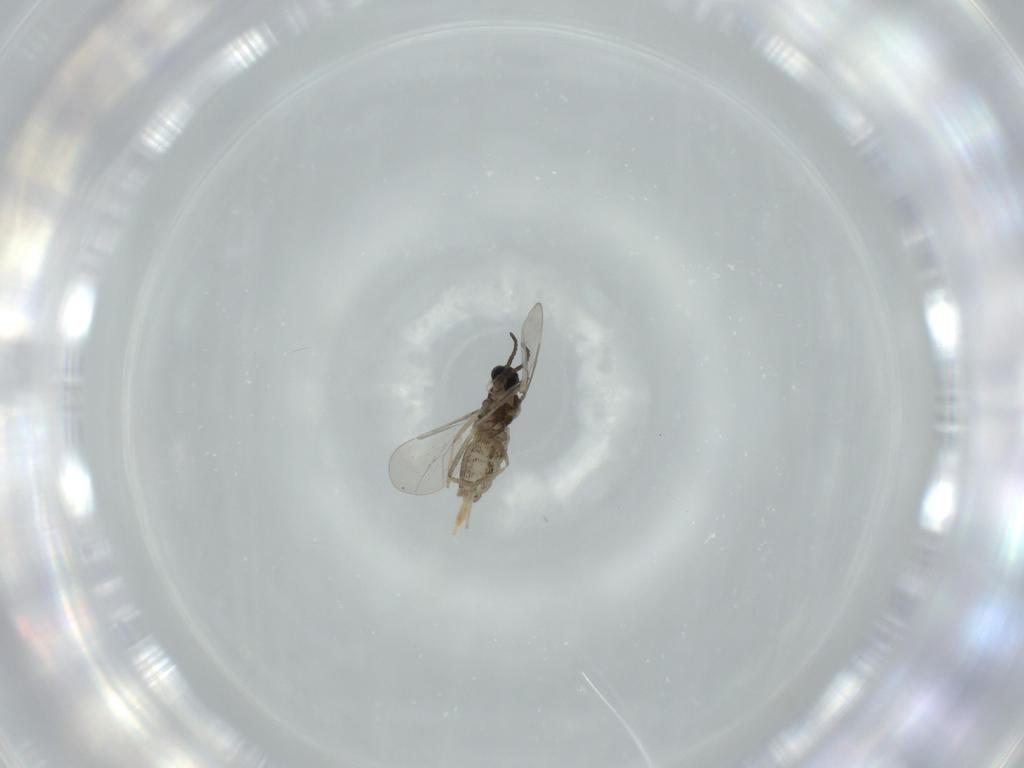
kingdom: Animalia
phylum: Arthropoda
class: Insecta
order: Diptera
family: Cecidomyiidae
